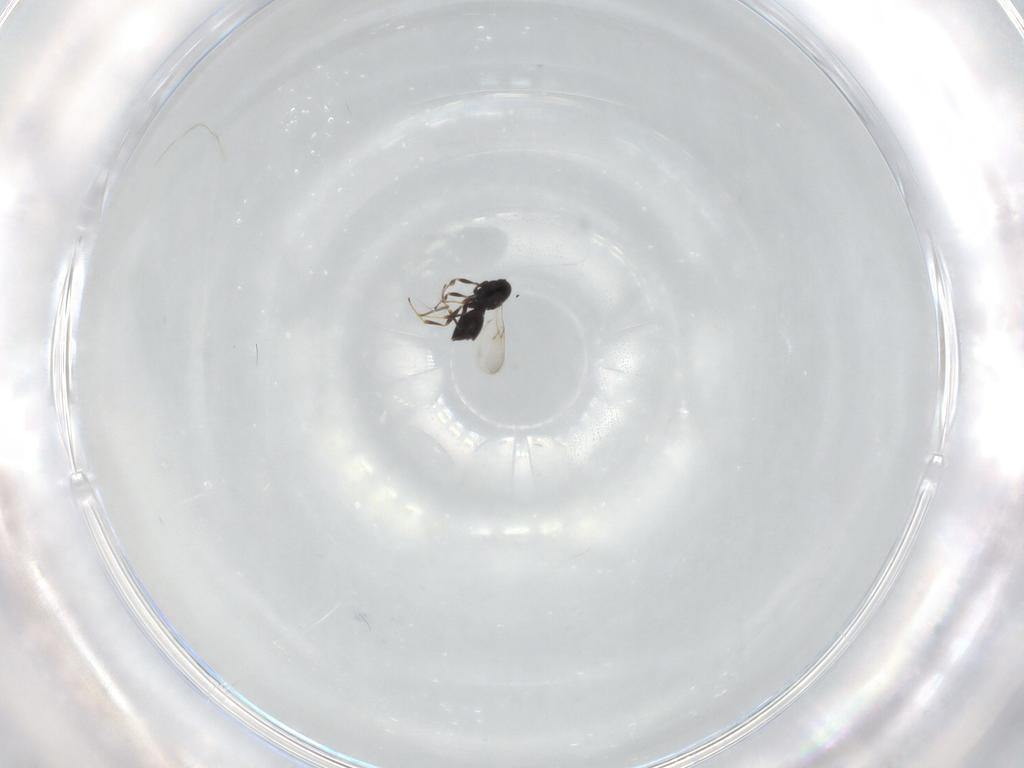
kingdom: Animalia
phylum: Arthropoda
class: Insecta
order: Hymenoptera
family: Scelionidae
